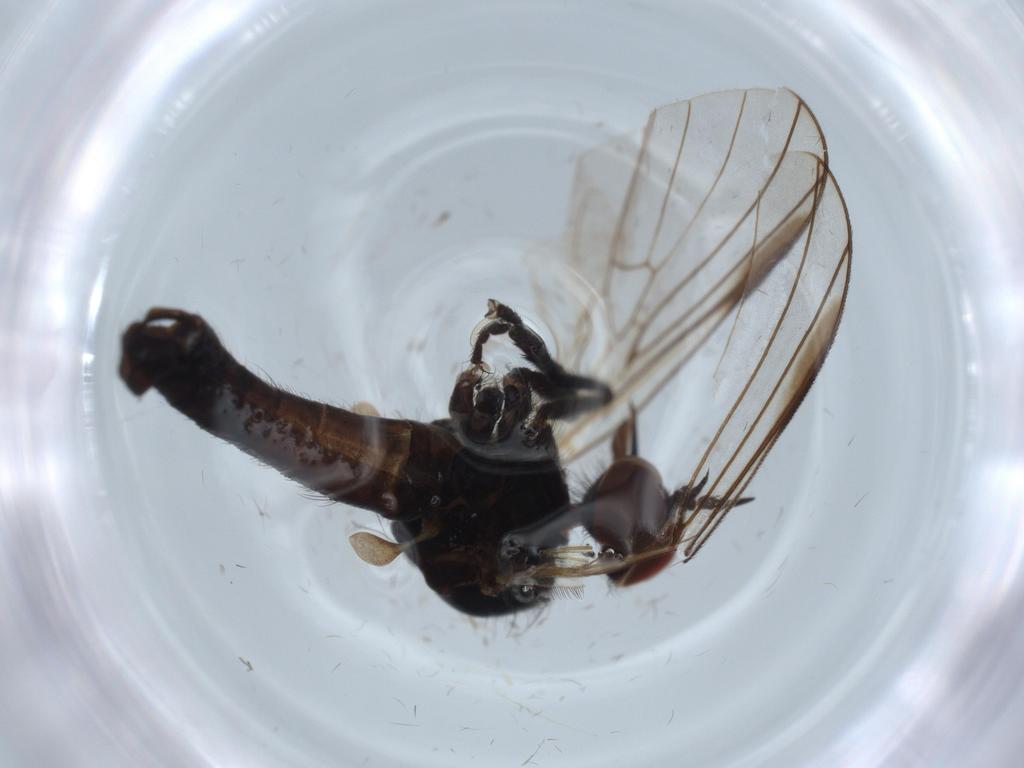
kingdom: Animalia
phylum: Arthropoda
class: Insecta
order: Diptera
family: Empididae
